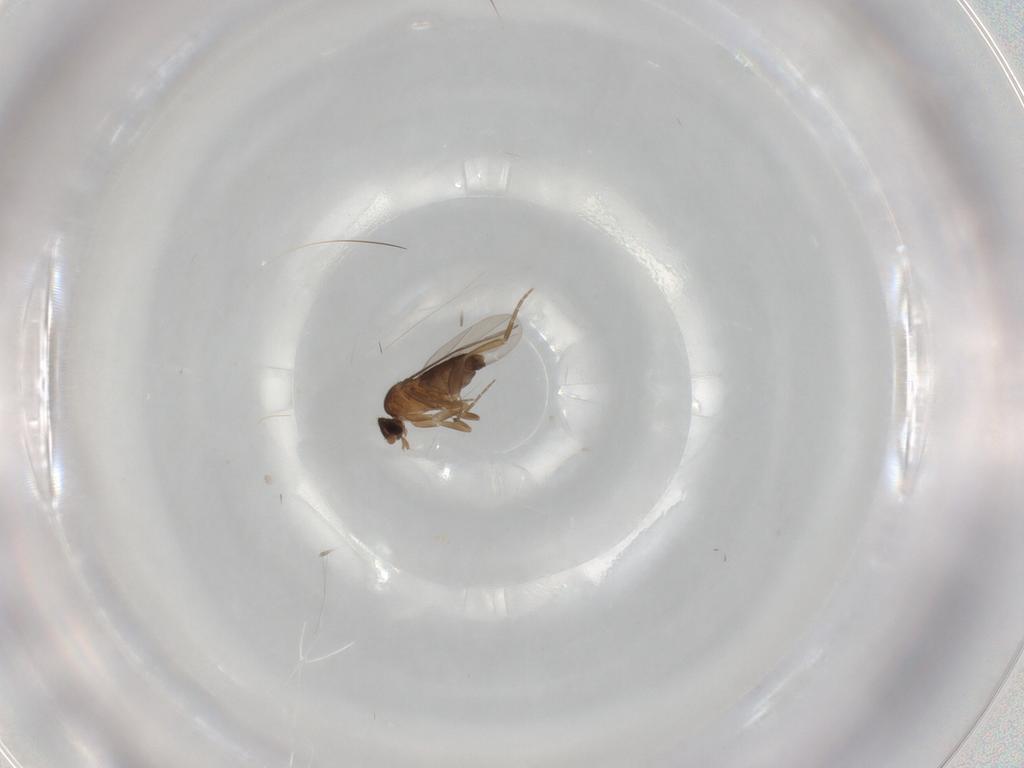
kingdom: Animalia
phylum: Arthropoda
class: Insecta
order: Diptera
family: Phoridae
